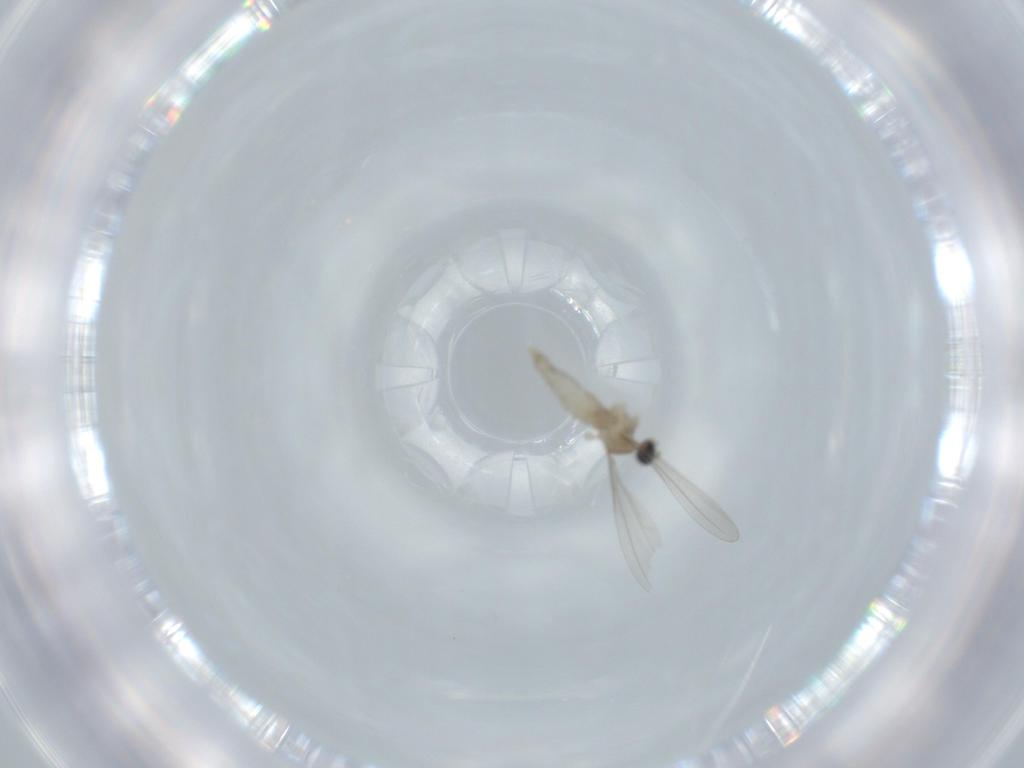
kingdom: Animalia
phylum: Arthropoda
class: Insecta
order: Diptera
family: Cecidomyiidae
